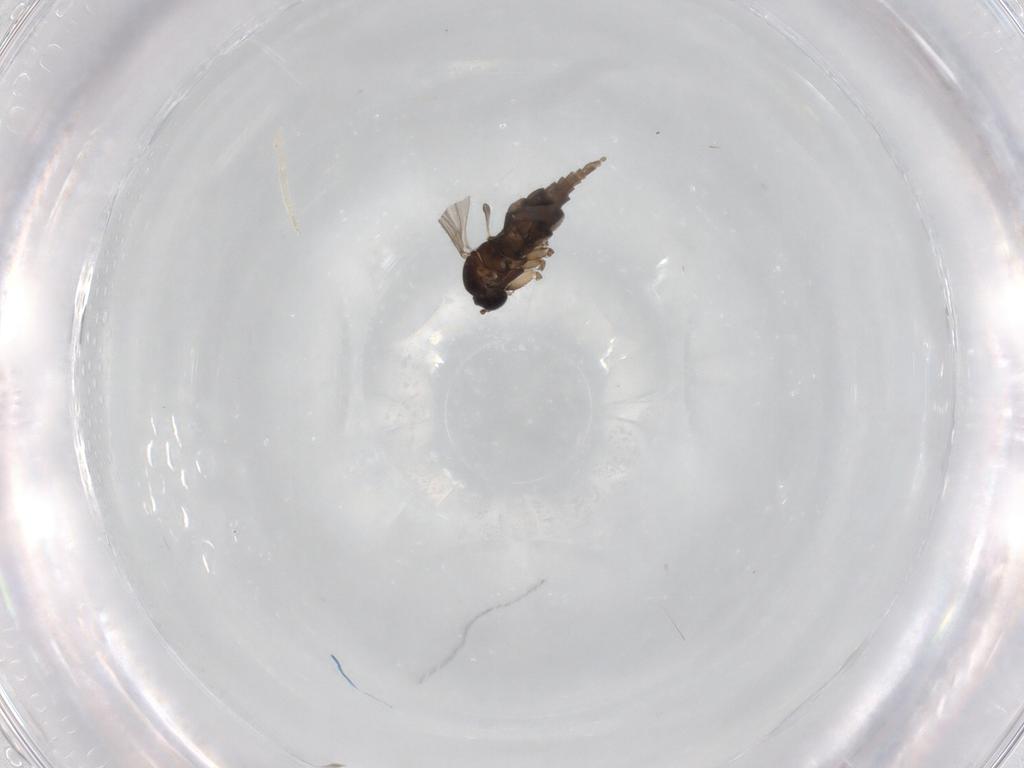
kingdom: Animalia
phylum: Arthropoda
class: Insecta
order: Diptera
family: Sciaridae
